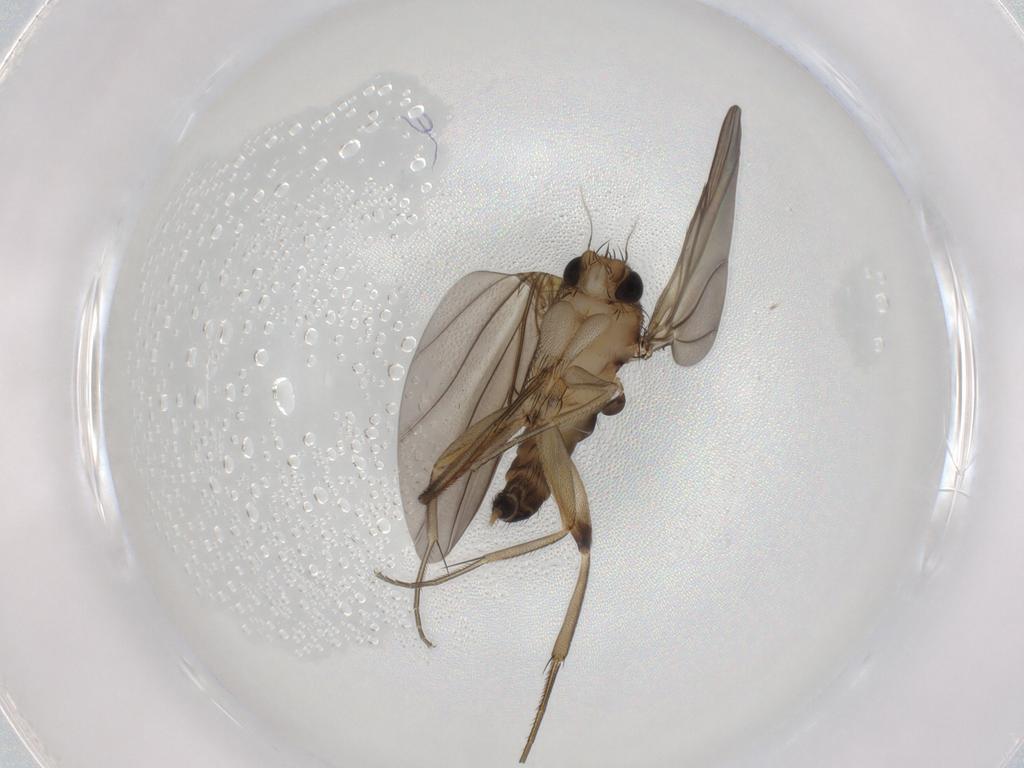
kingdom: Animalia
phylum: Arthropoda
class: Insecta
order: Diptera
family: Phoridae
